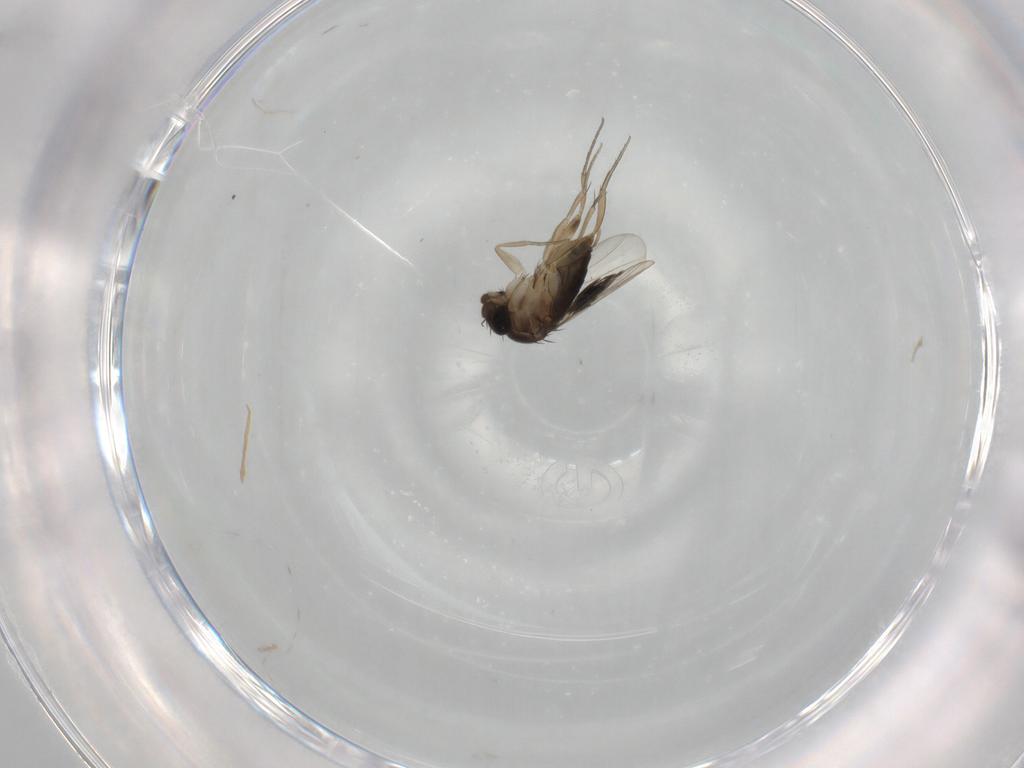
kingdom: Animalia
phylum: Arthropoda
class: Insecta
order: Diptera
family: Phoridae
